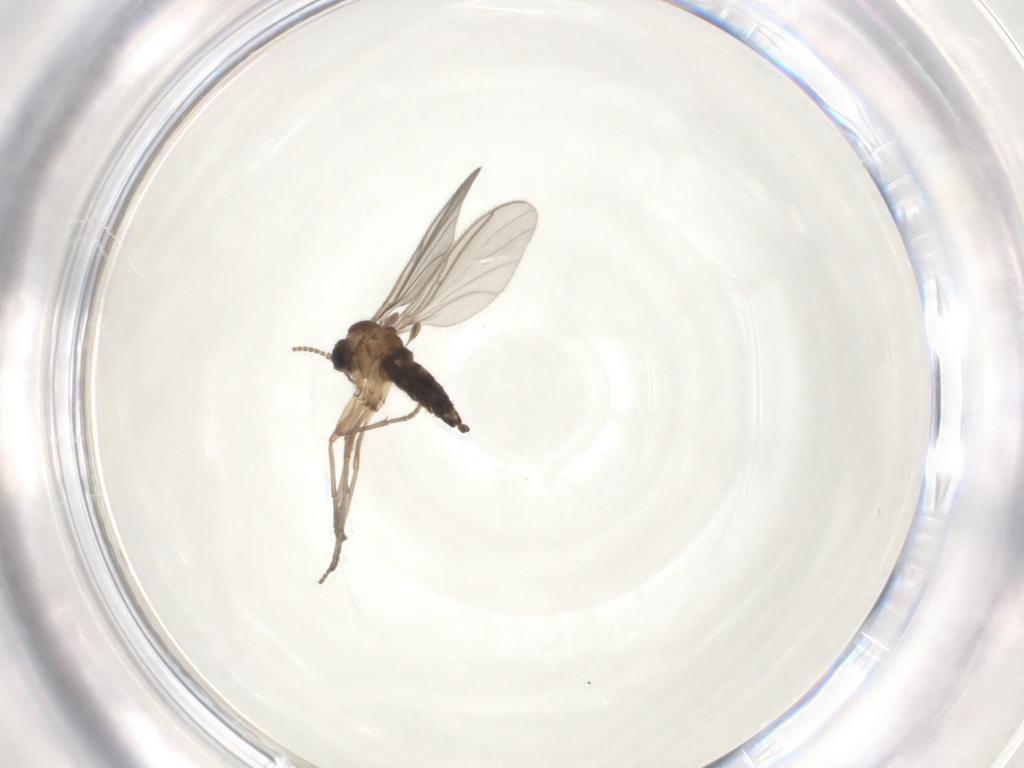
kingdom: Animalia
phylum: Arthropoda
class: Insecta
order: Diptera
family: Sciaridae
